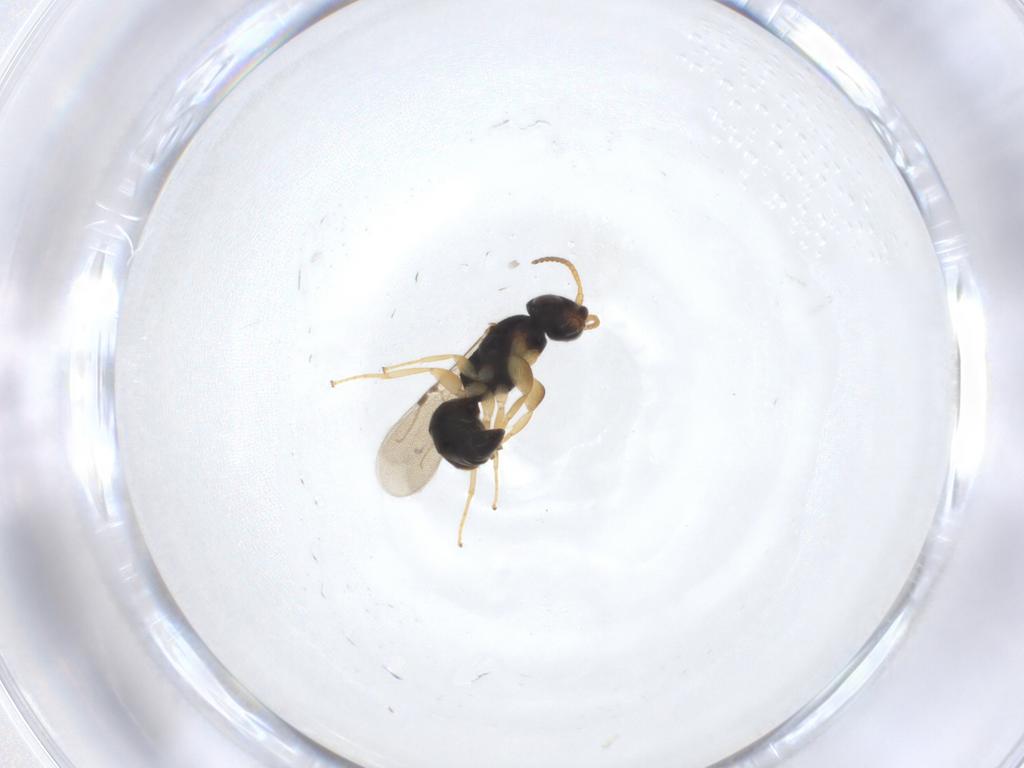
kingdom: Animalia
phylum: Arthropoda
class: Insecta
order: Hymenoptera
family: Bethylidae
